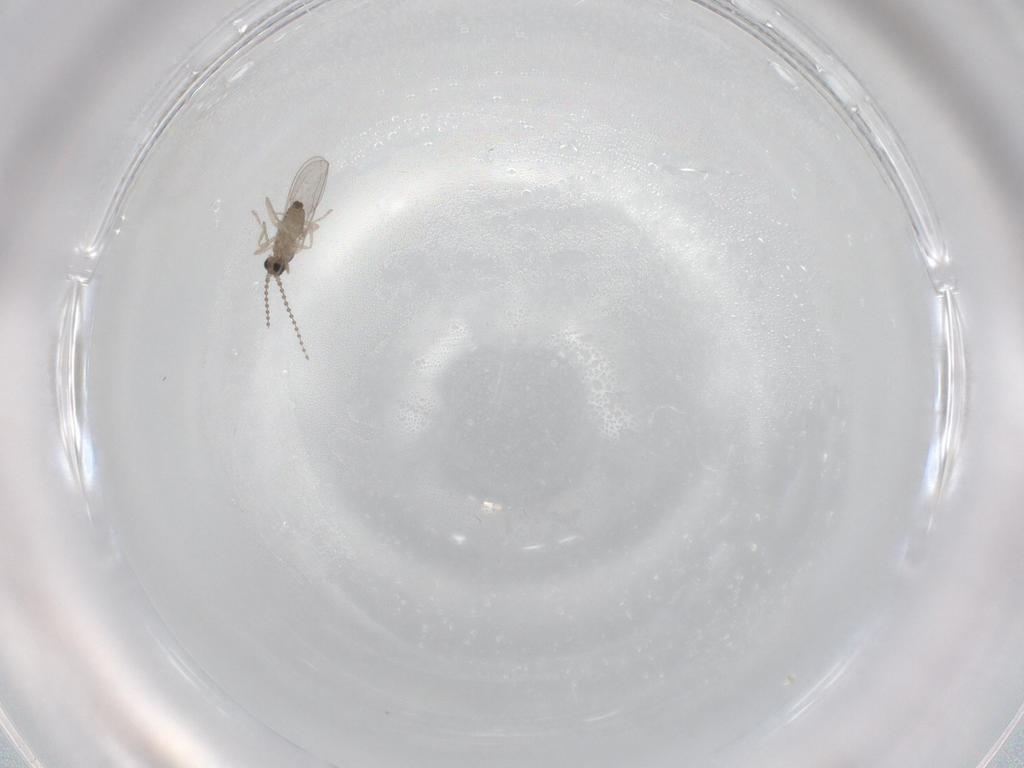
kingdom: Animalia
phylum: Arthropoda
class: Insecta
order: Diptera
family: Cecidomyiidae
